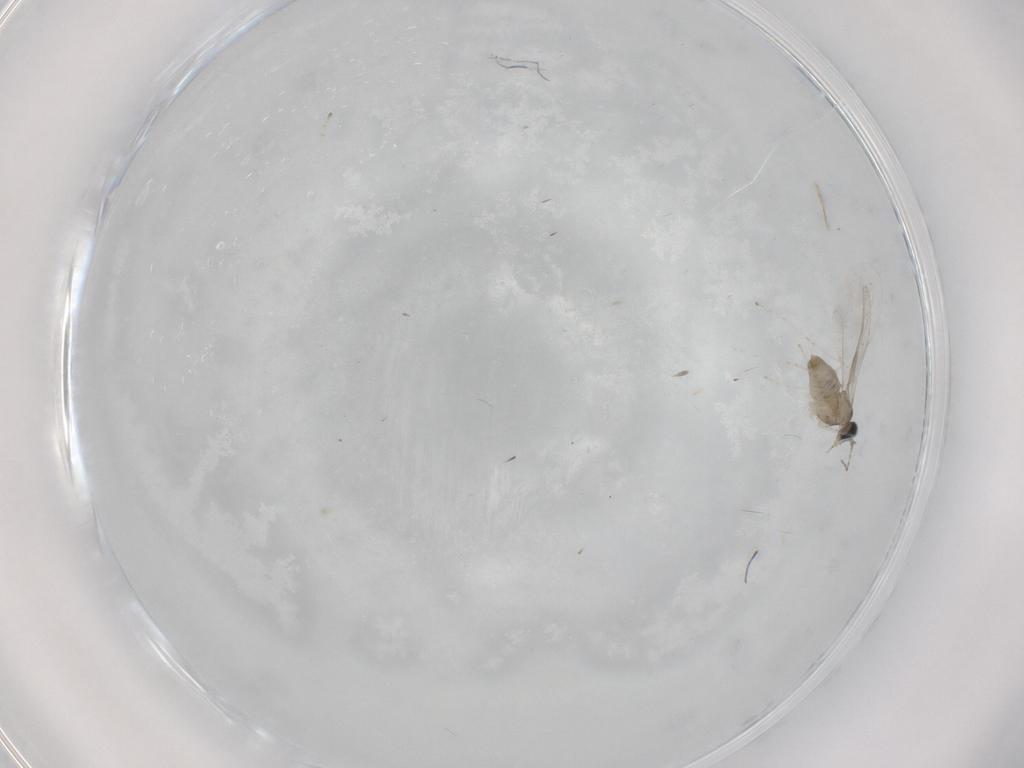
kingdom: Animalia
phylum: Arthropoda
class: Insecta
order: Diptera
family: Cecidomyiidae
